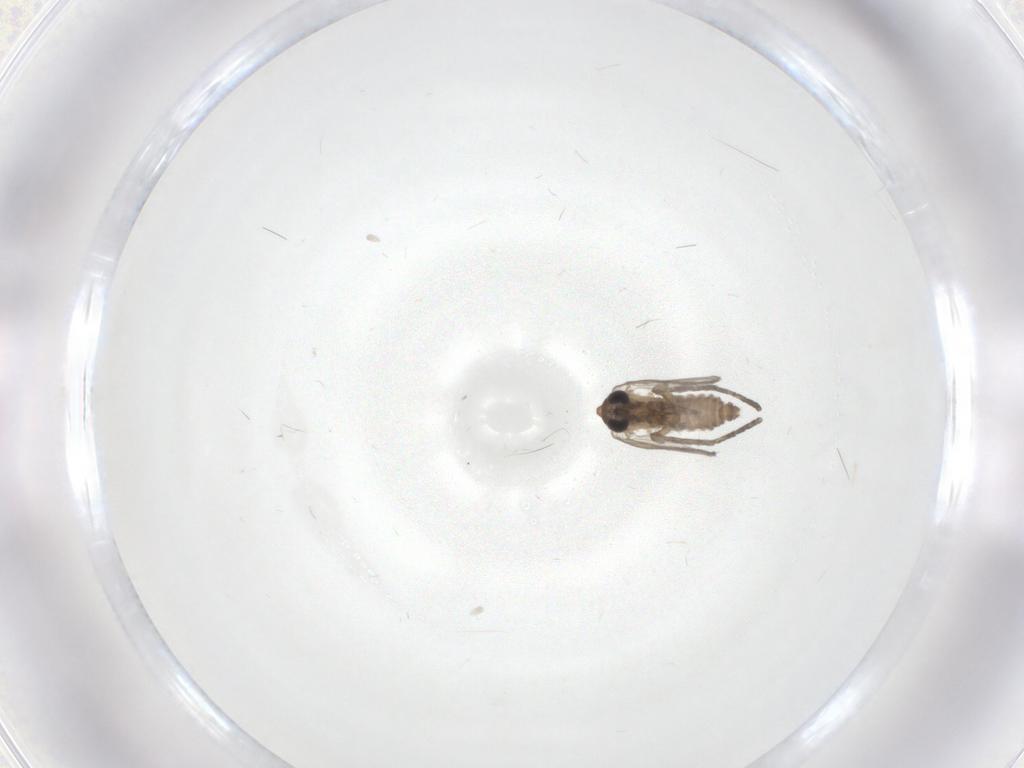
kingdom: Animalia
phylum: Arthropoda
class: Insecta
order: Diptera
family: Psychodidae
